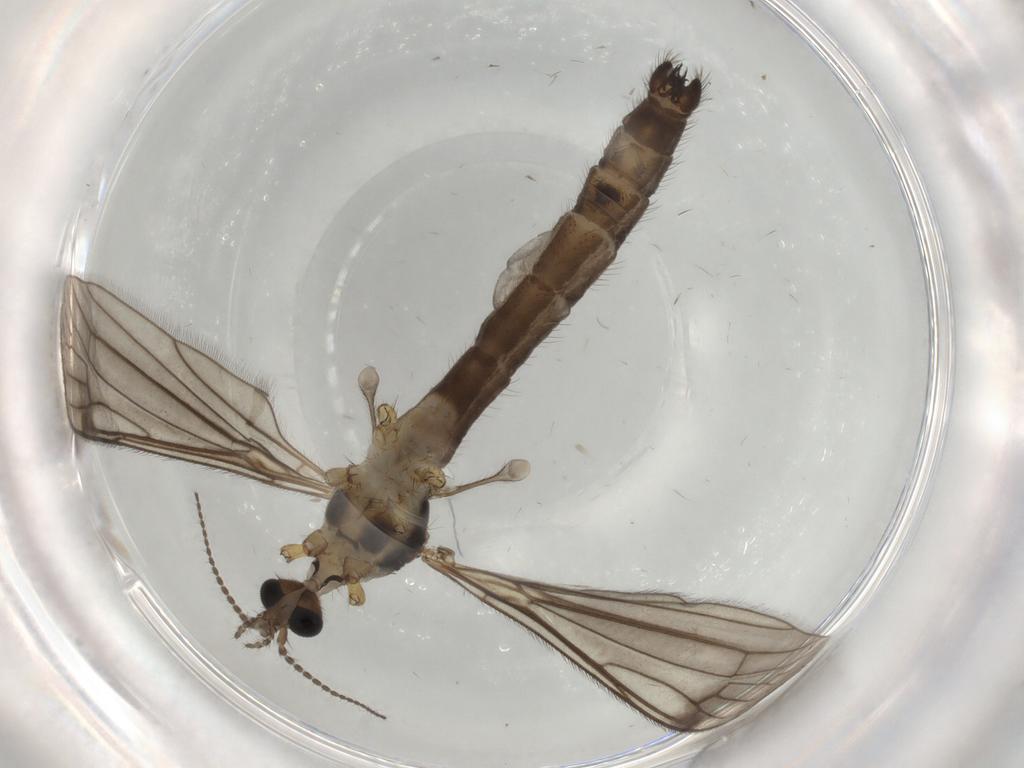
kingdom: Animalia
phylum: Arthropoda
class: Insecta
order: Diptera
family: Limoniidae
